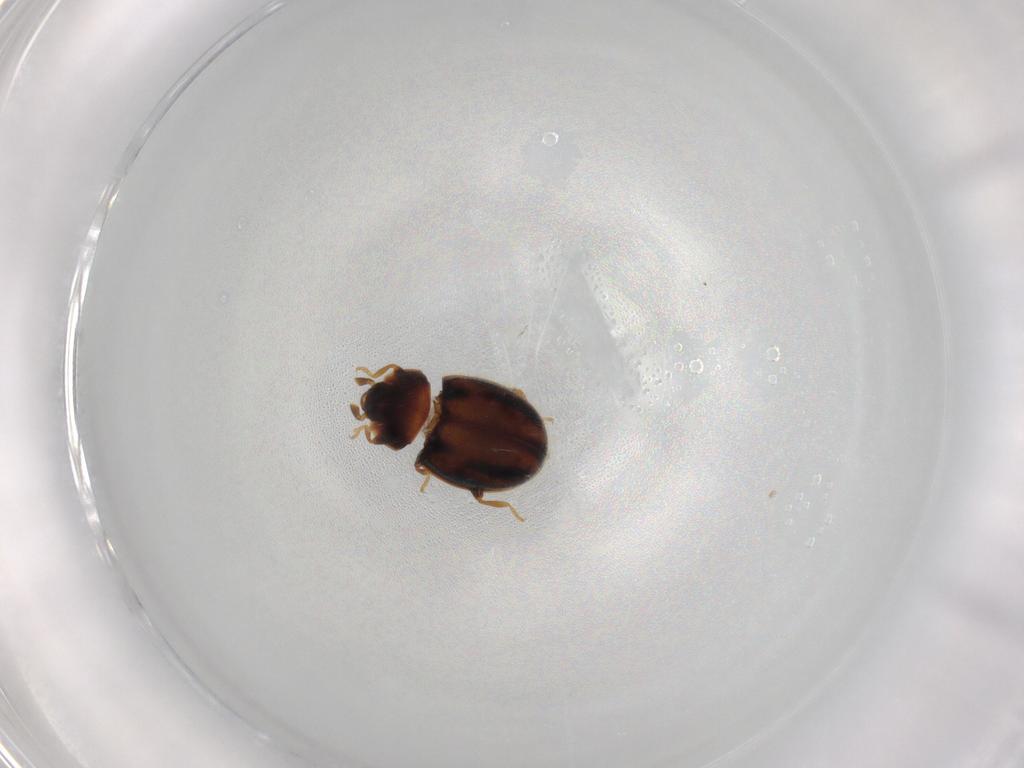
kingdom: Animalia
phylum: Arthropoda
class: Insecta
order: Coleoptera
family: Coccinellidae
